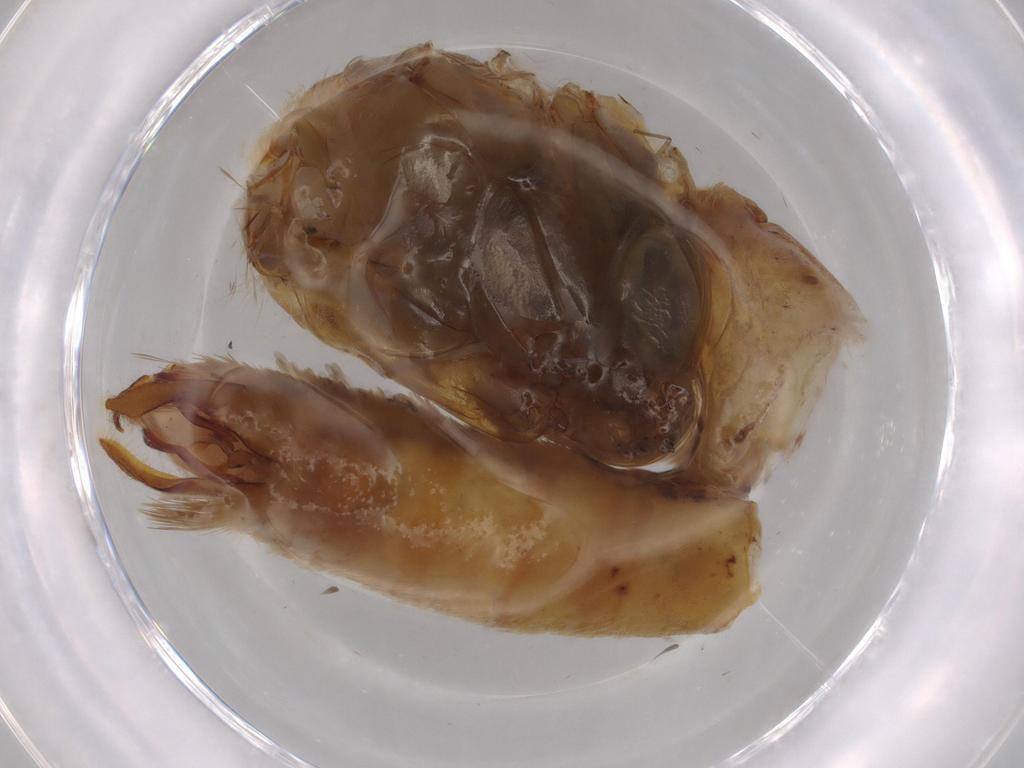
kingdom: Animalia
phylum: Arthropoda
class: Insecta
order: Lepidoptera
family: Tineidae
